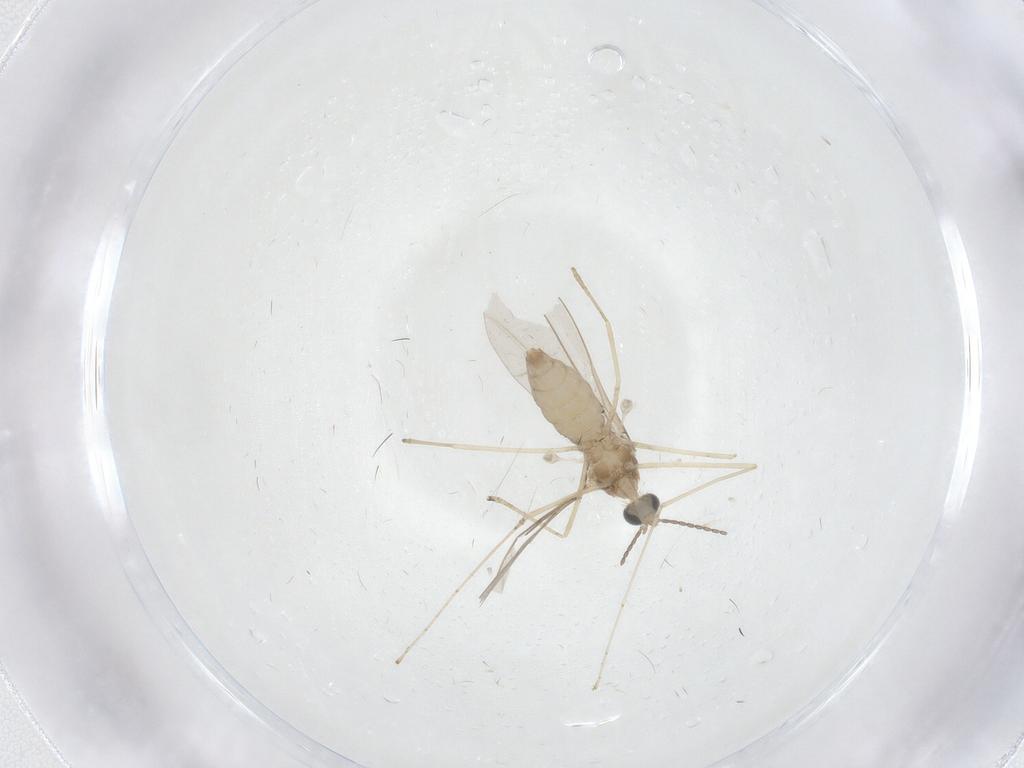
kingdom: Animalia
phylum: Arthropoda
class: Insecta
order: Diptera
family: Cecidomyiidae
